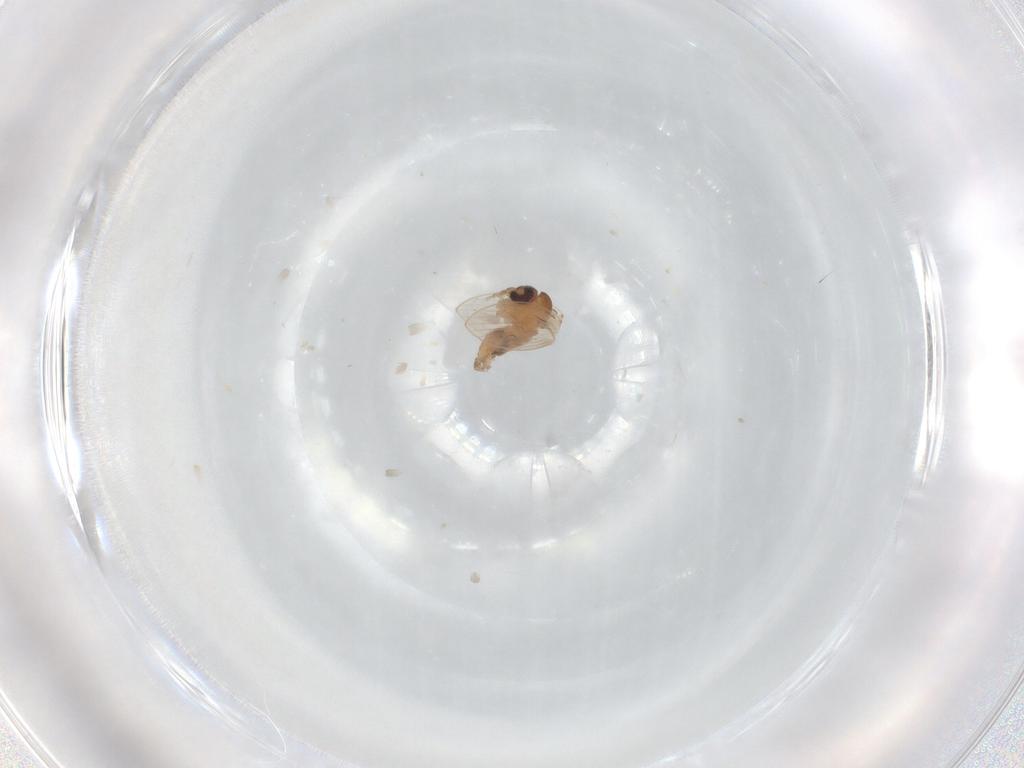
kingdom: Animalia
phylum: Arthropoda
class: Insecta
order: Diptera
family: Psychodidae
